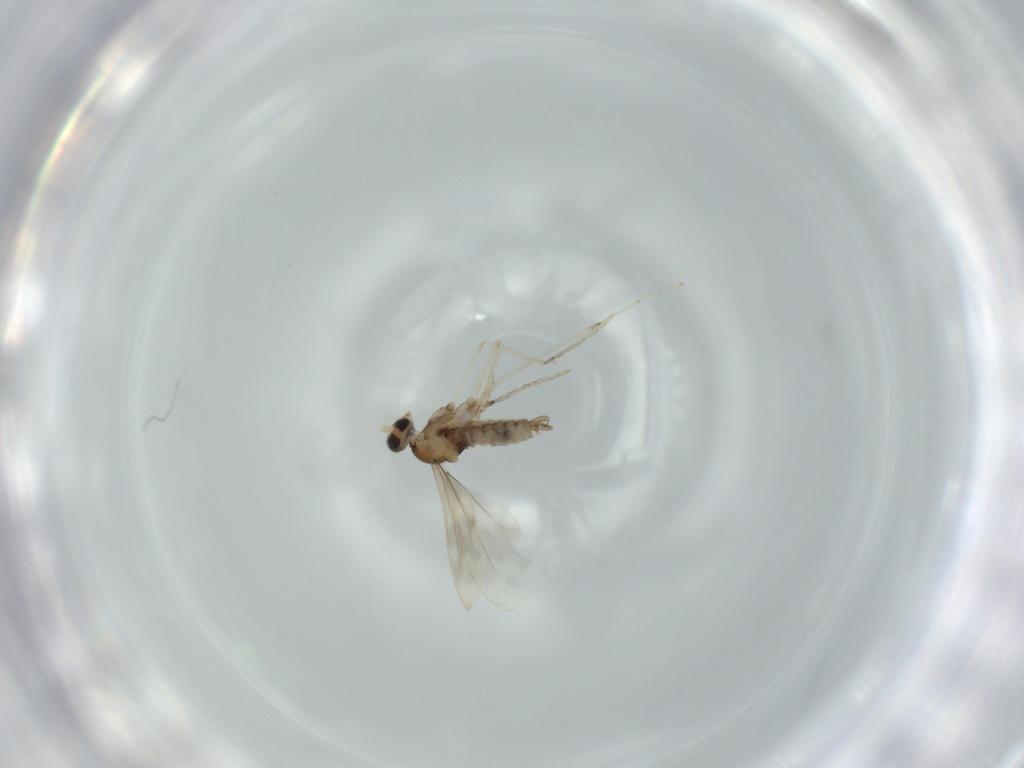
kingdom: Animalia
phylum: Arthropoda
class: Insecta
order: Diptera
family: Cecidomyiidae
